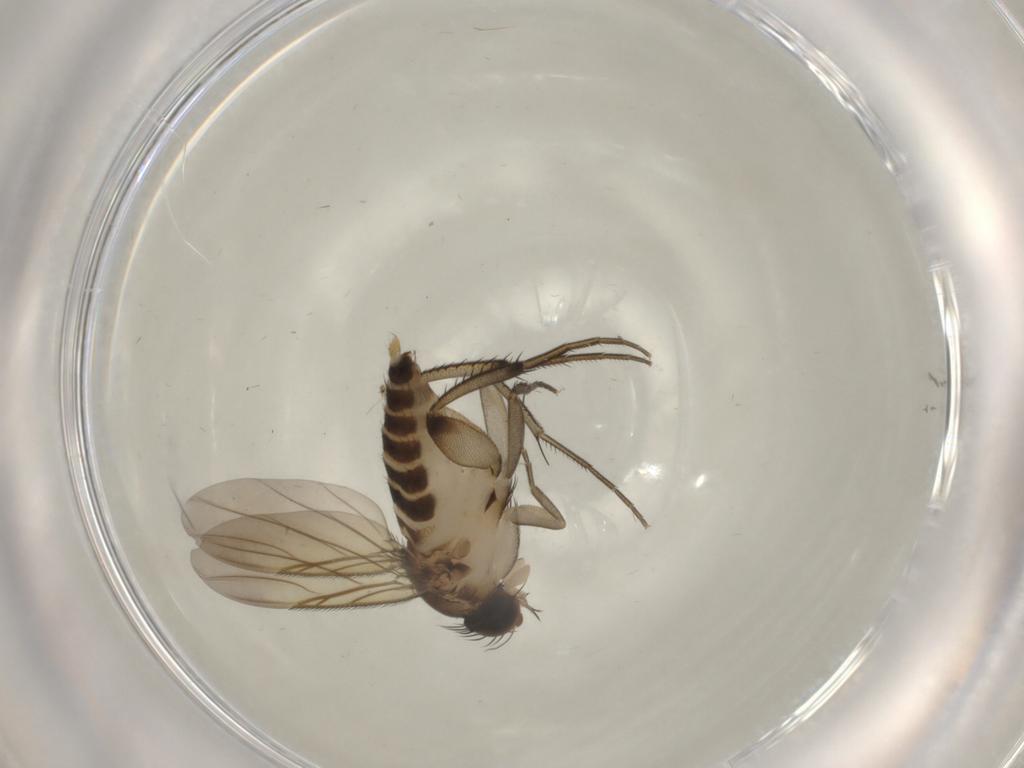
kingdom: Animalia
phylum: Arthropoda
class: Insecta
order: Diptera
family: Phoridae
